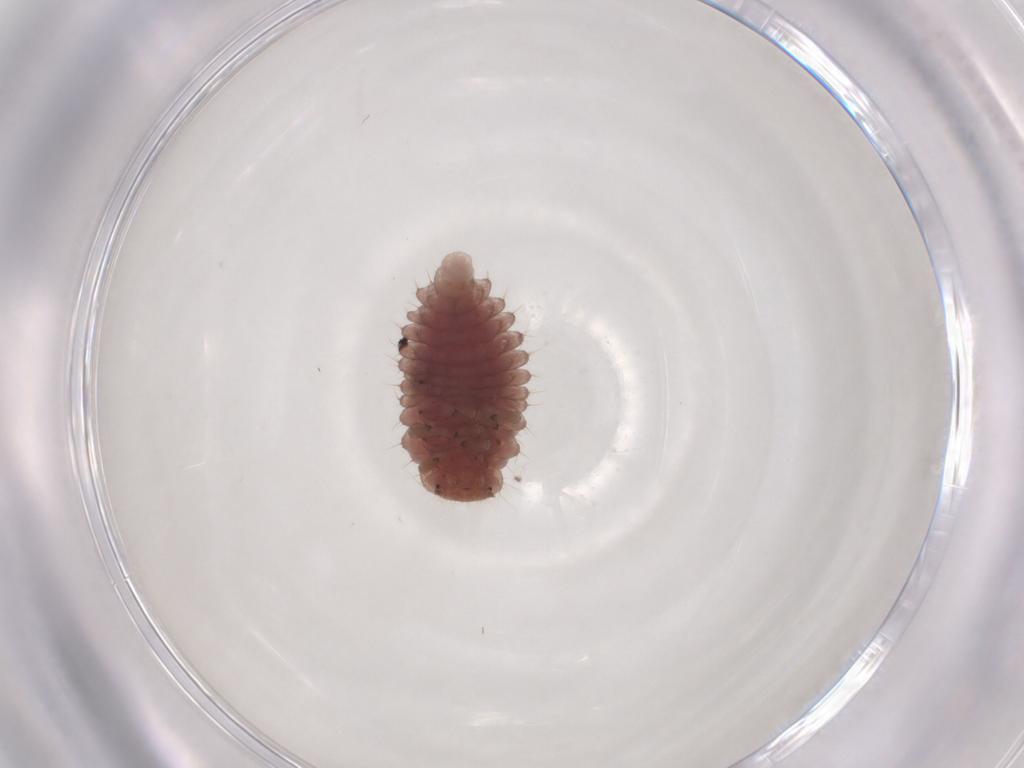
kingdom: Animalia
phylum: Arthropoda
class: Insecta
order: Coleoptera
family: Coccinellidae
